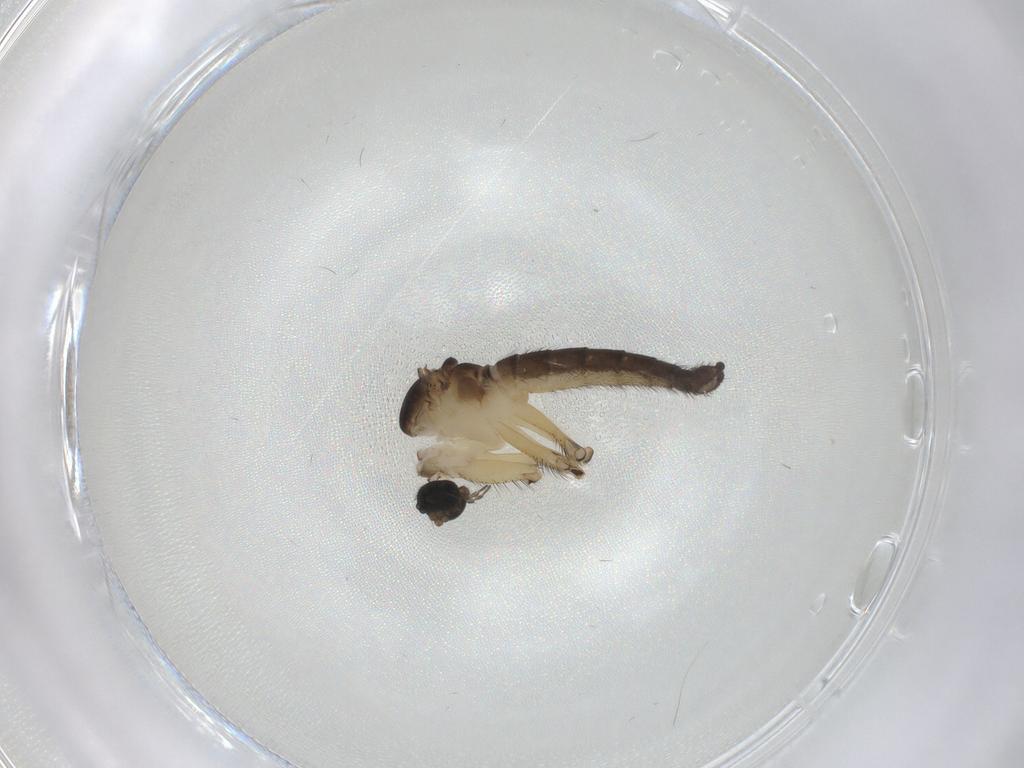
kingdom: Animalia
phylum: Arthropoda
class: Insecta
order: Diptera
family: Sciaridae
